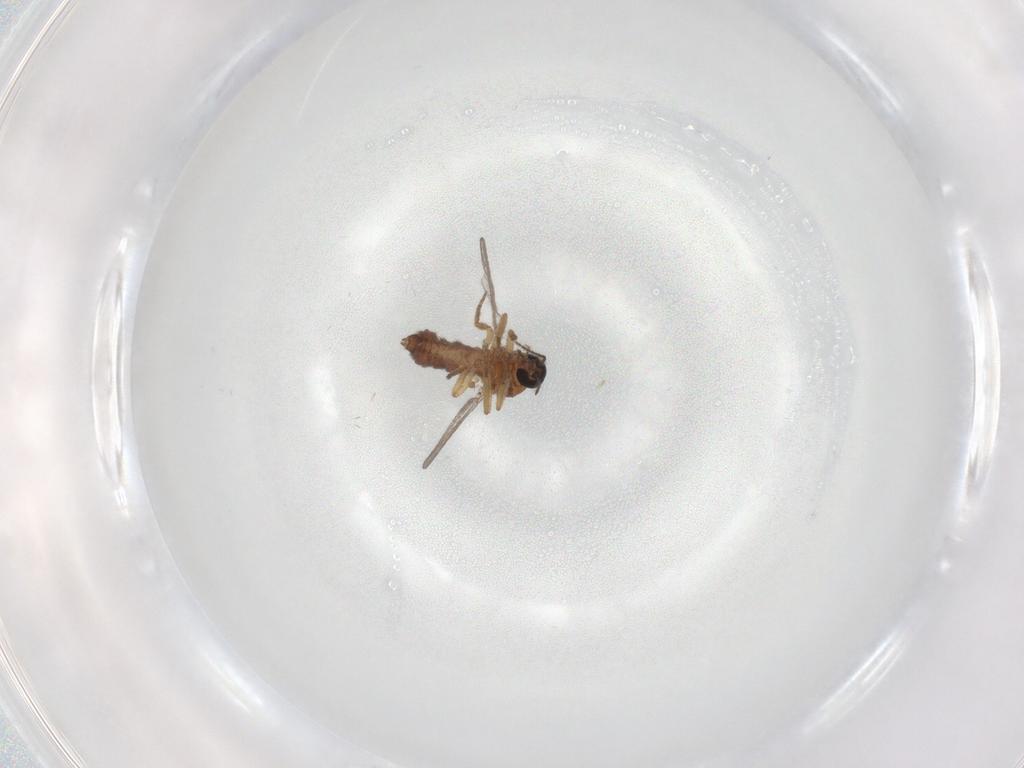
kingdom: Animalia
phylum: Arthropoda
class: Insecta
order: Diptera
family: Ceratopogonidae
